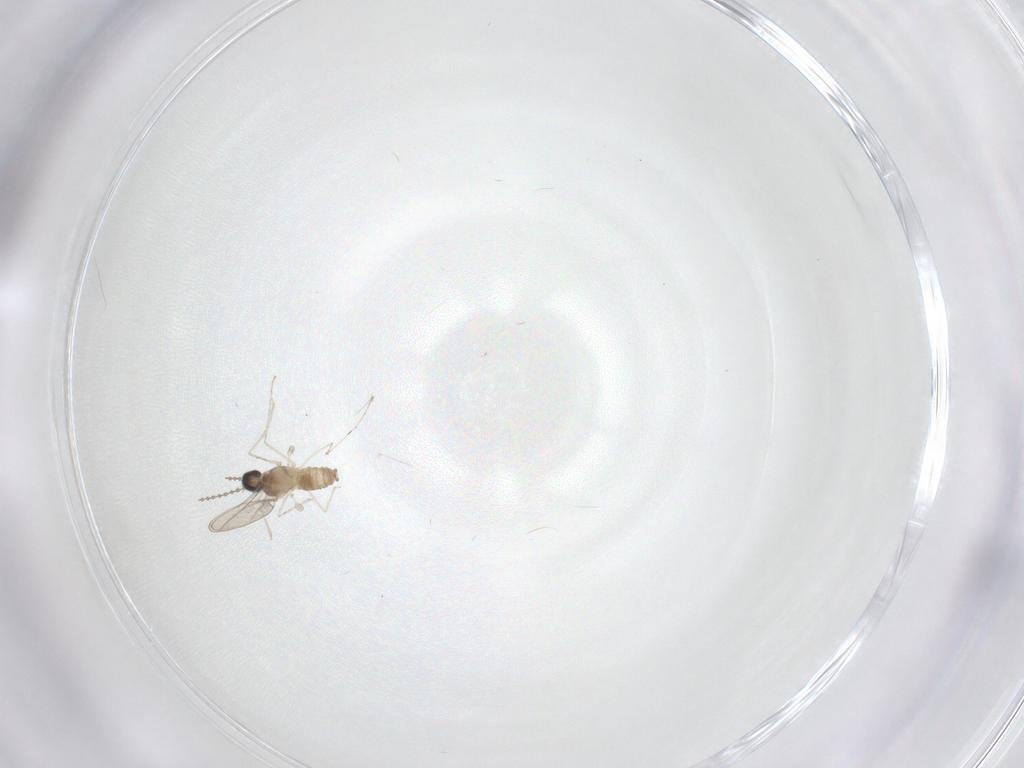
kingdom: Animalia
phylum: Arthropoda
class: Insecta
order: Diptera
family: Cecidomyiidae
